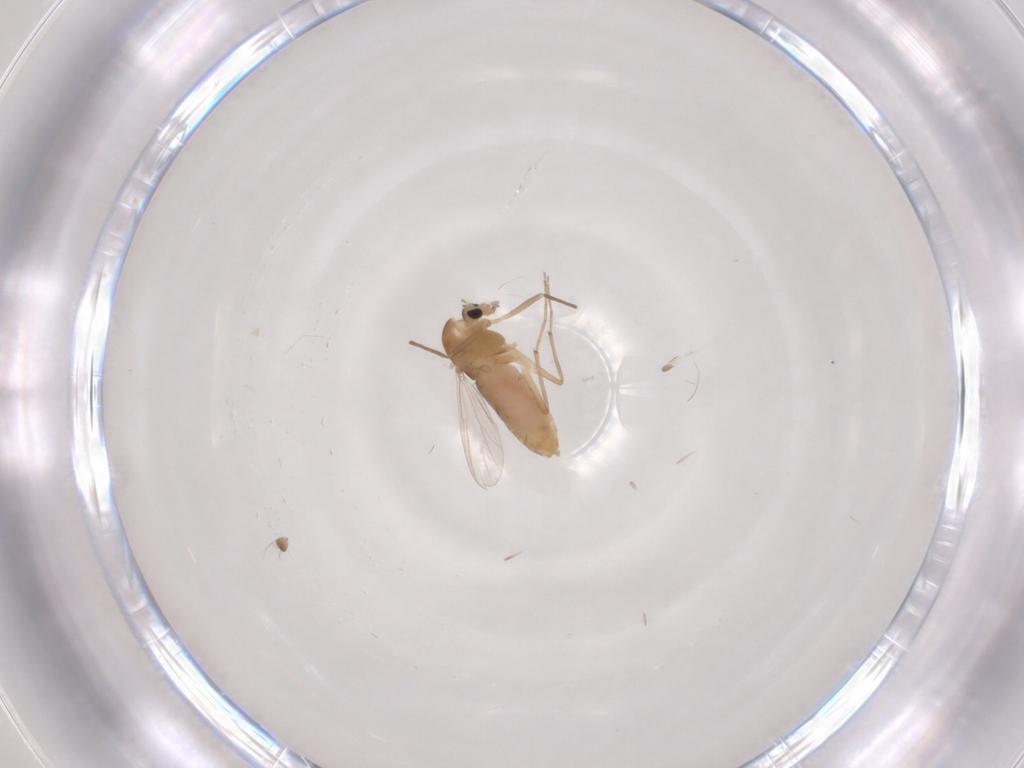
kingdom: Animalia
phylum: Arthropoda
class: Insecta
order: Diptera
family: Chironomidae
